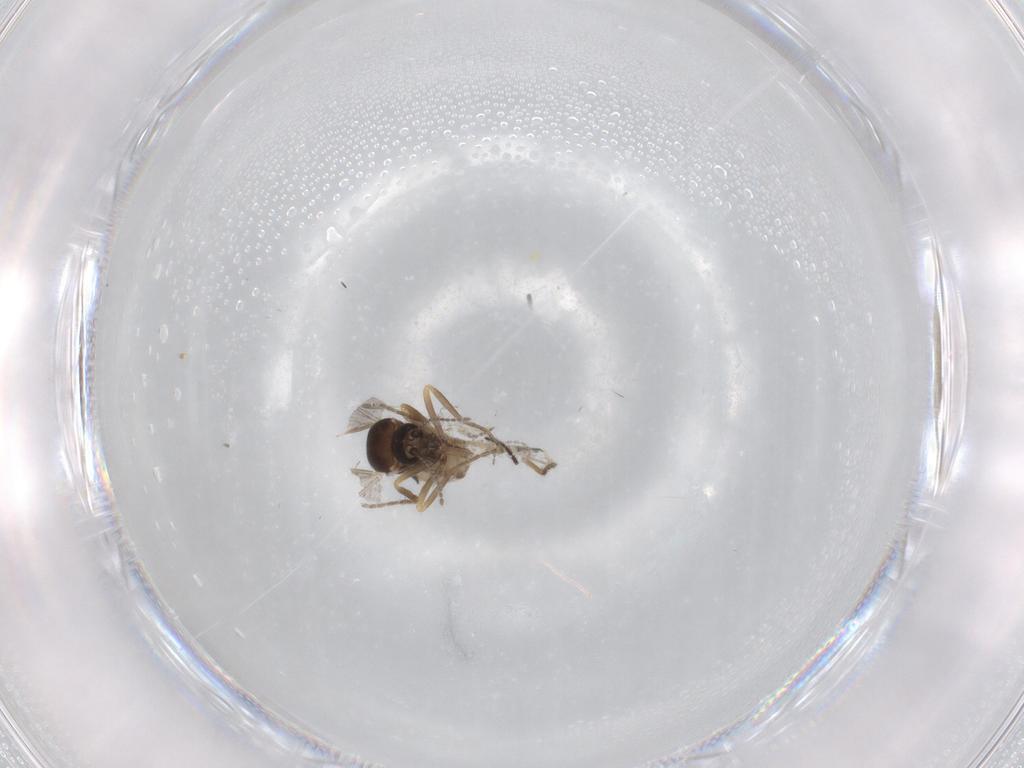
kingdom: Animalia
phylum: Arthropoda
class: Insecta
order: Diptera
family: Ceratopogonidae
